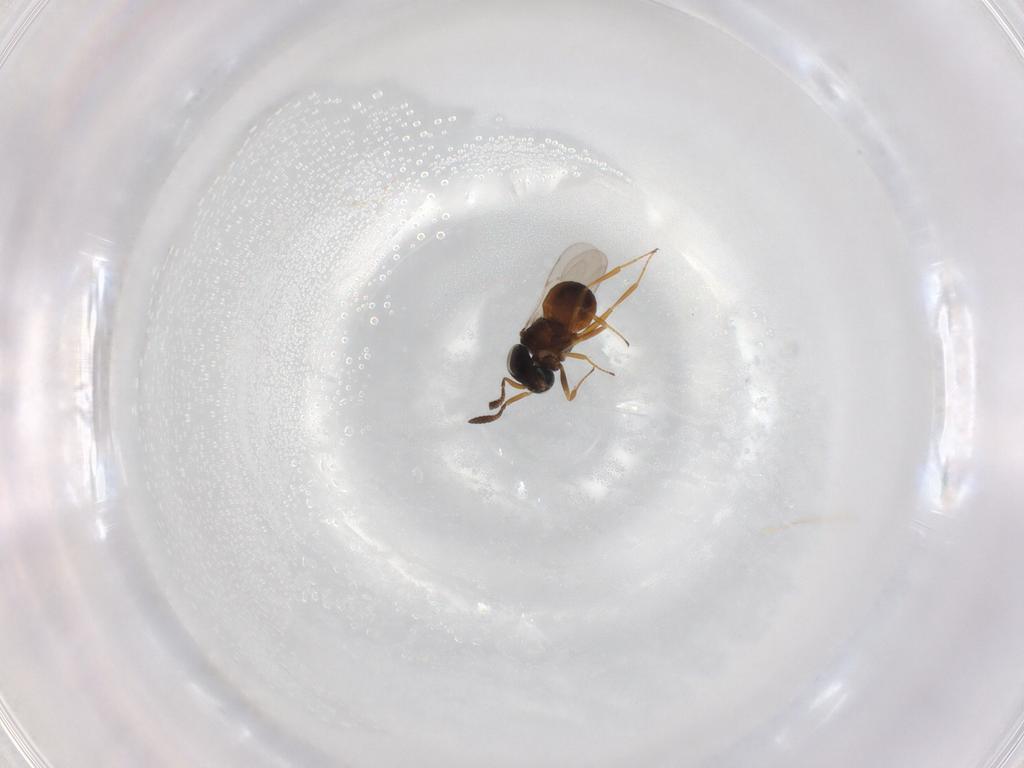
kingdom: Animalia
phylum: Arthropoda
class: Insecta
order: Hymenoptera
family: Scelionidae
